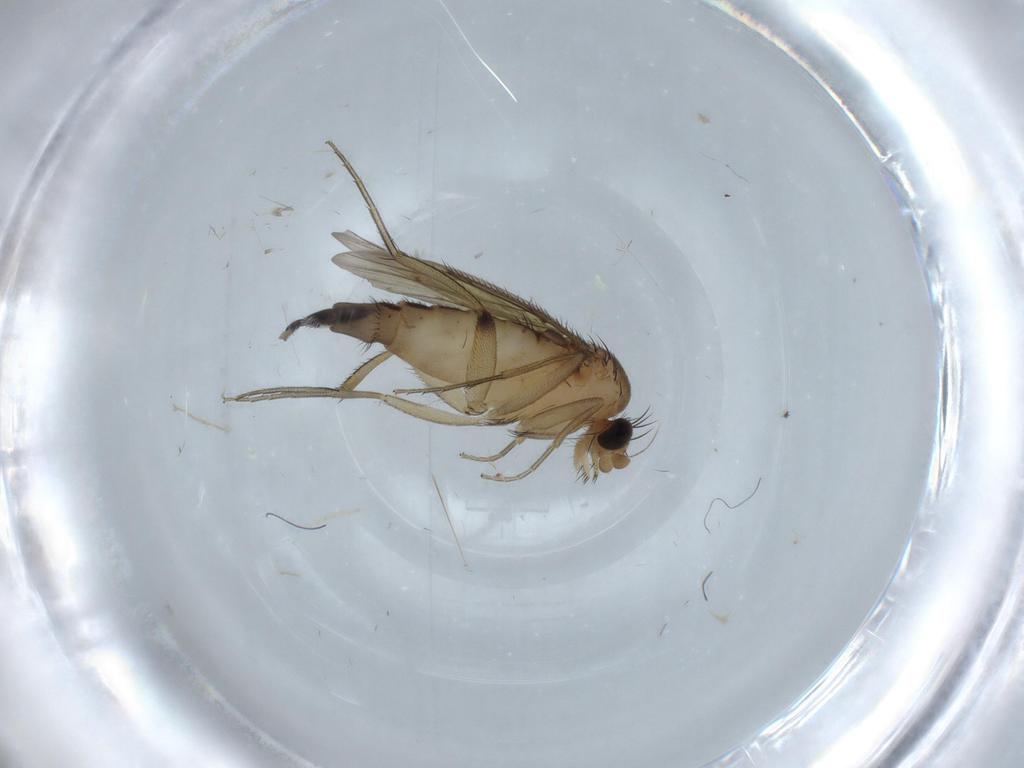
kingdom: Animalia
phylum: Arthropoda
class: Insecta
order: Diptera
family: Phoridae
